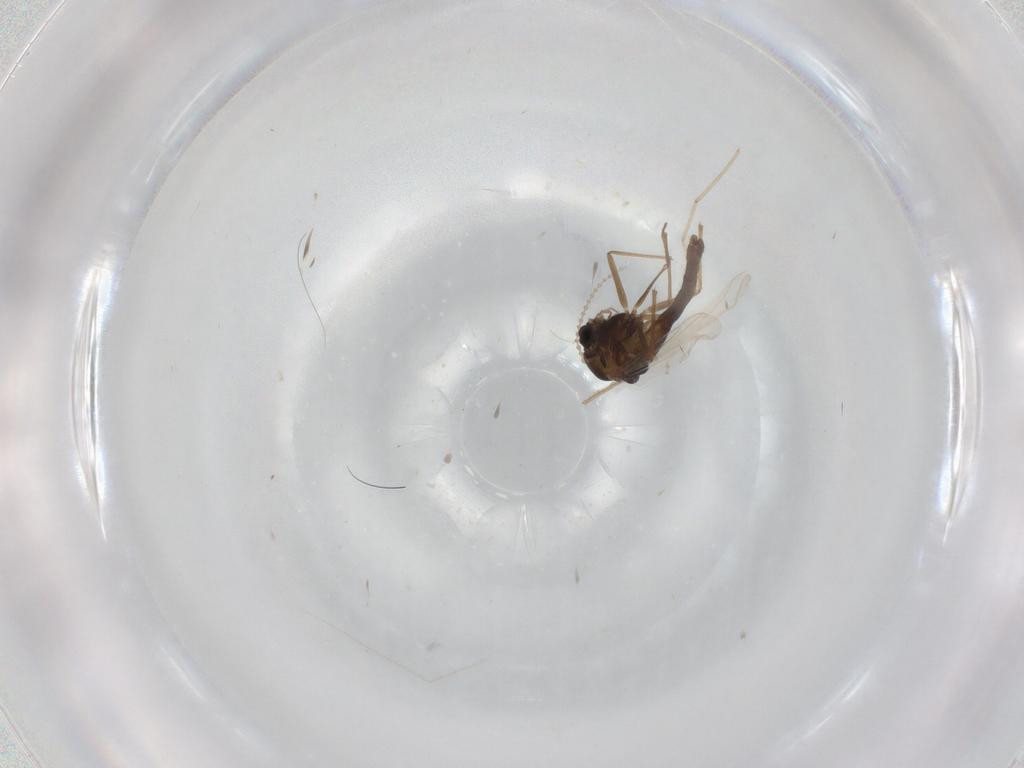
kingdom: Animalia
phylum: Arthropoda
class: Insecta
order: Diptera
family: Chironomidae
